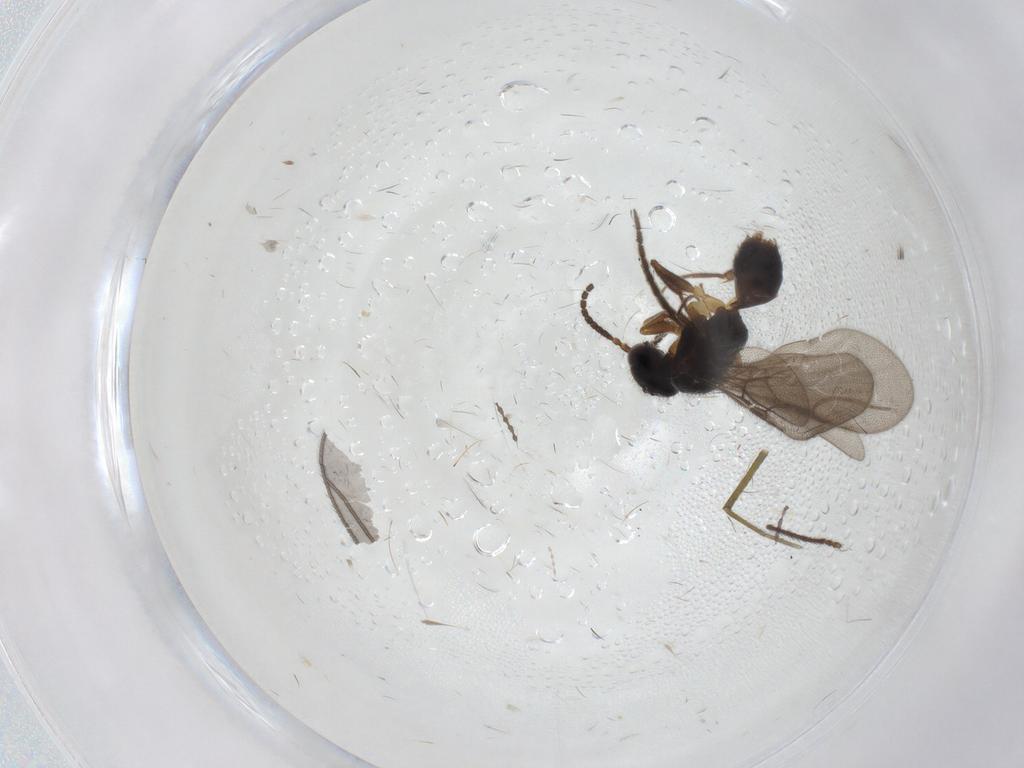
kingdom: Animalia
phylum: Arthropoda
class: Insecta
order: Hymenoptera
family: Bethylidae
